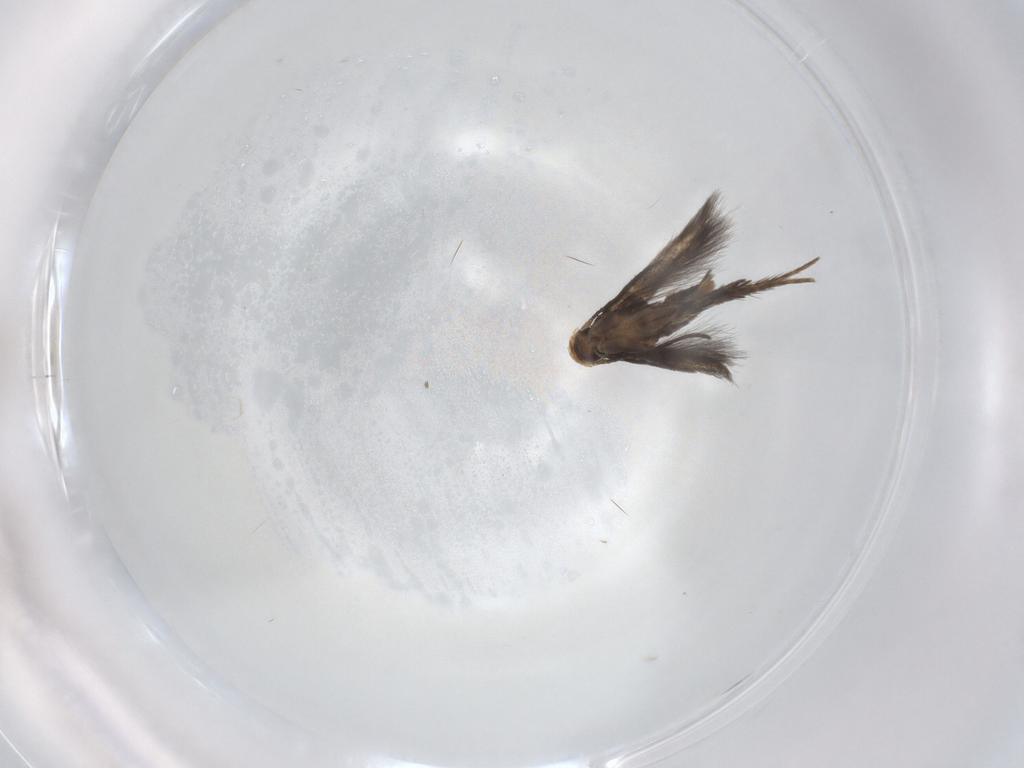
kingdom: Animalia
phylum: Arthropoda
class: Insecta
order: Lepidoptera
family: Pyralidae
